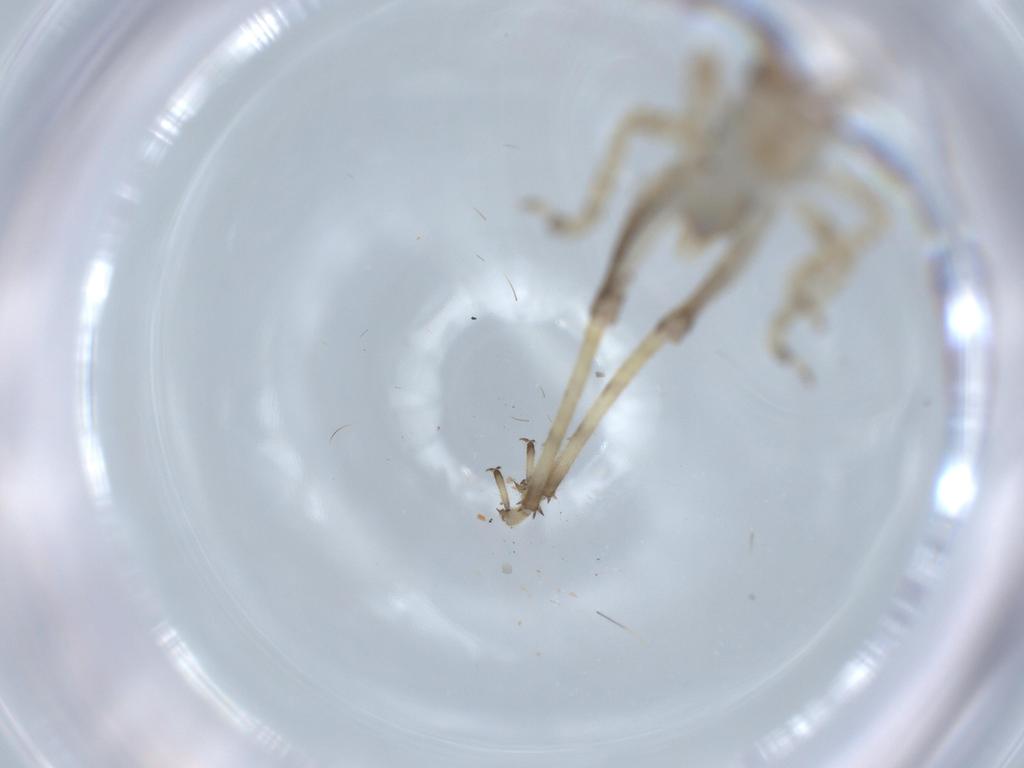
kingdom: Animalia
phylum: Arthropoda
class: Insecta
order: Orthoptera
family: Gryllidae
